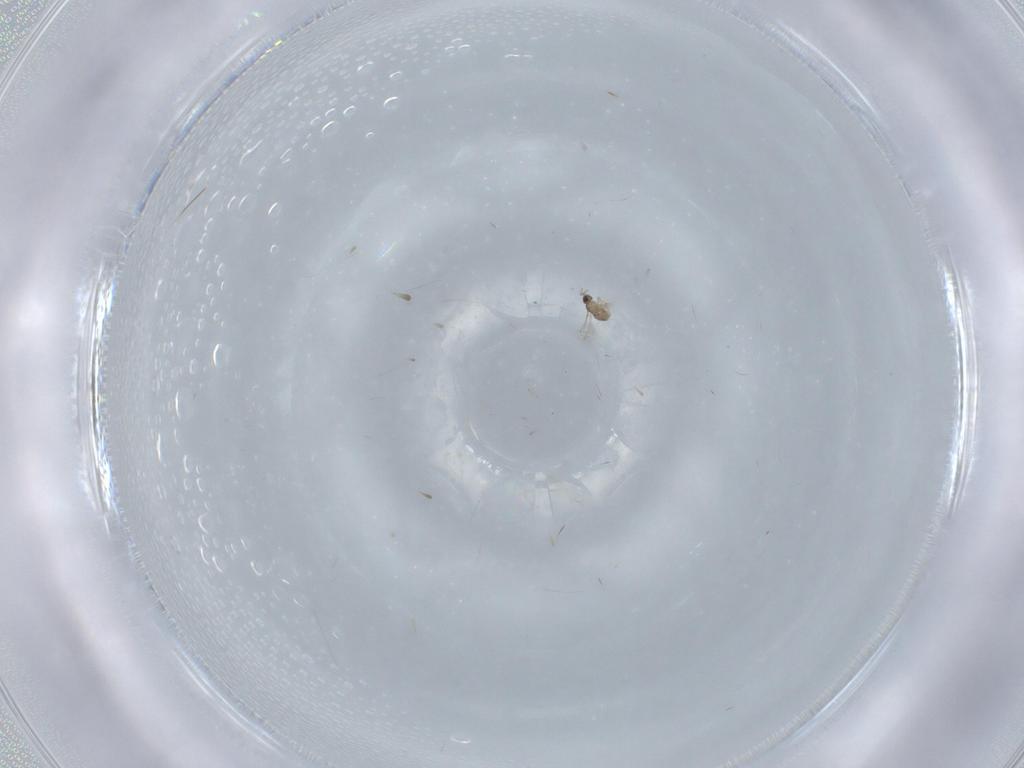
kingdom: Animalia
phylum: Arthropoda
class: Insecta
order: Hymenoptera
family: Mymaridae
